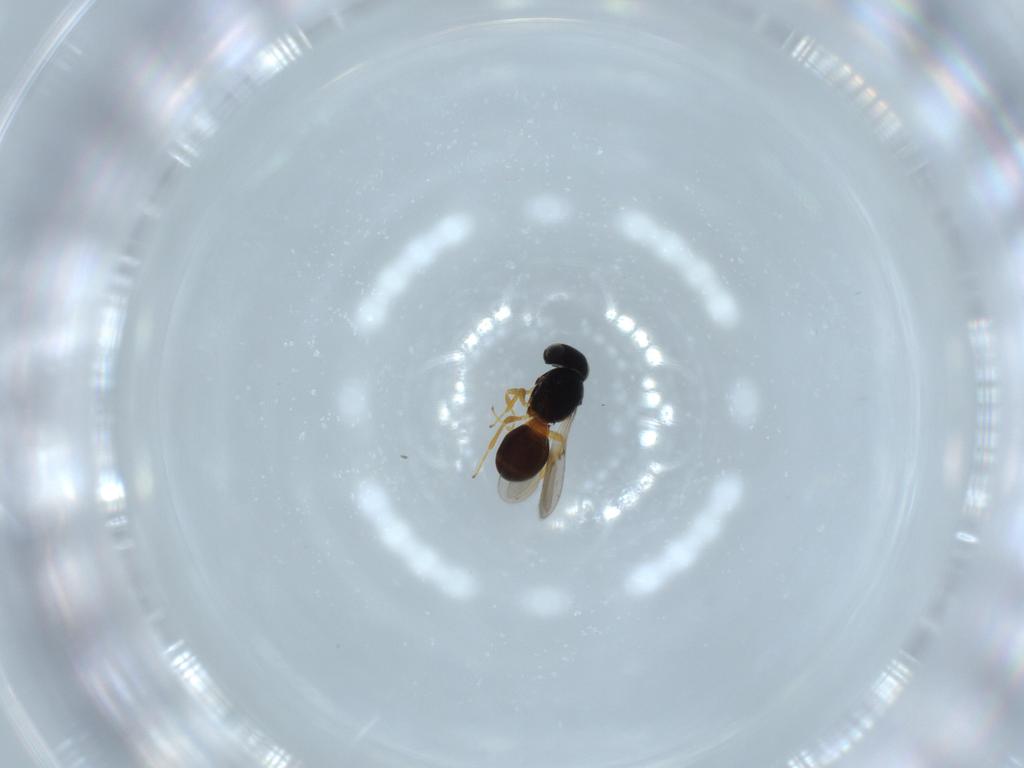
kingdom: Animalia
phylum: Arthropoda
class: Insecta
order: Hymenoptera
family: Scelionidae
